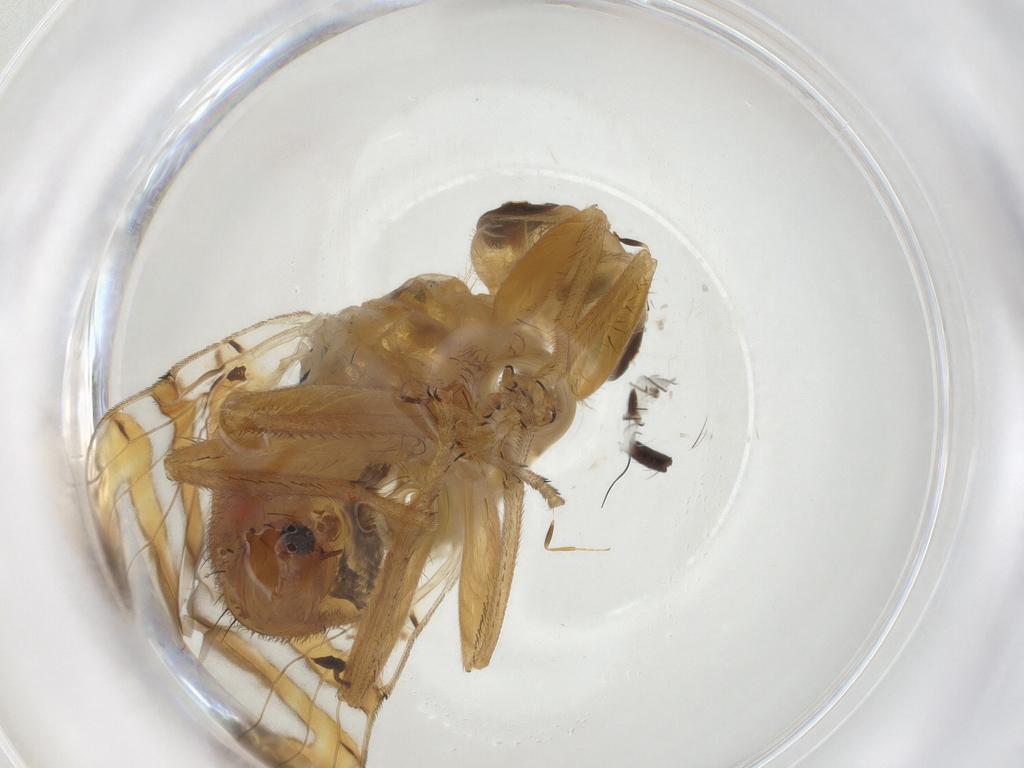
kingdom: Animalia
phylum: Arthropoda
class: Insecta
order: Diptera
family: Tephritidae
